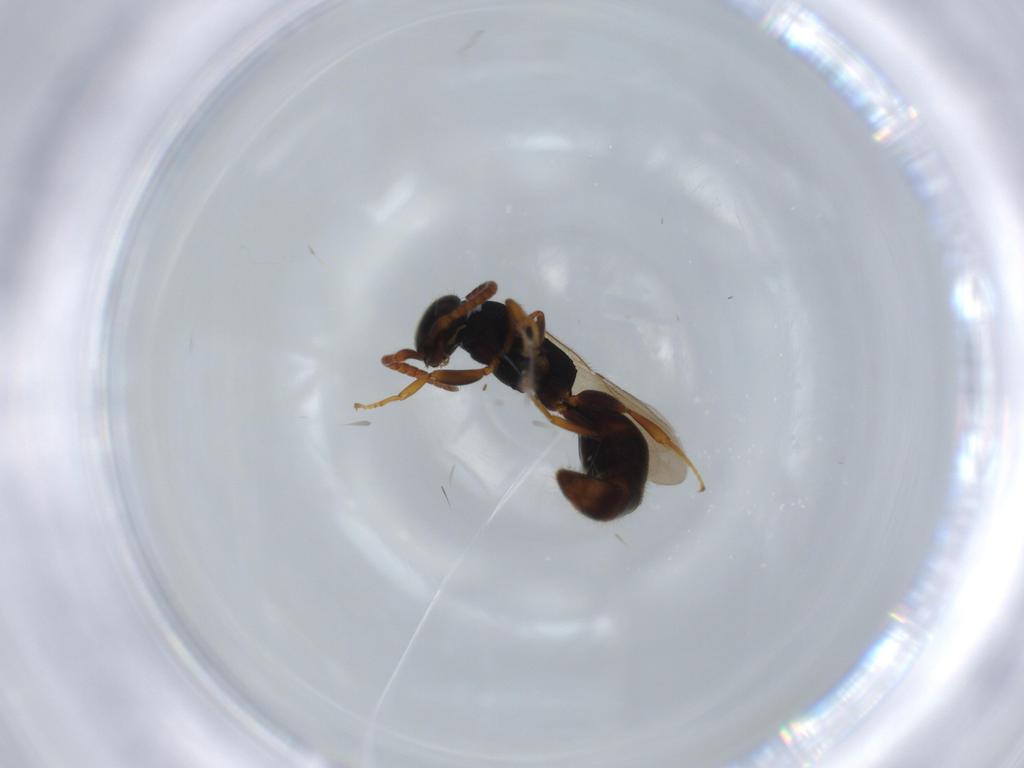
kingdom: Animalia
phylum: Arthropoda
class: Insecta
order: Hymenoptera
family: Bethylidae
